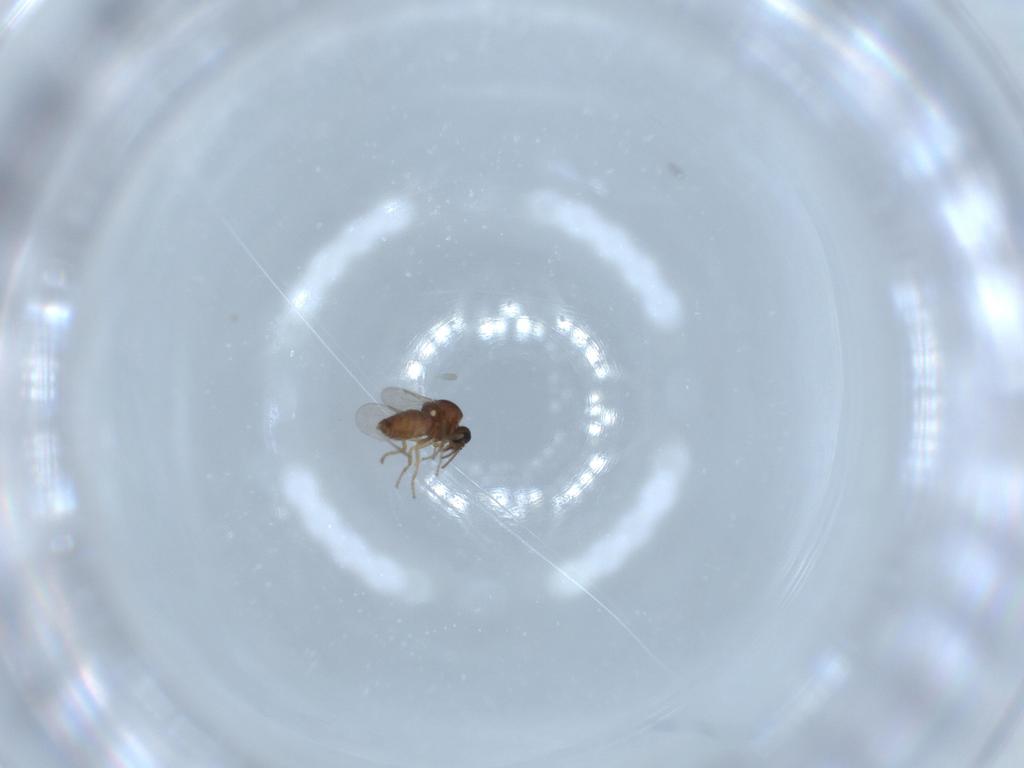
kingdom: Animalia
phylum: Arthropoda
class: Insecta
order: Diptera
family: Ceratopogonidae
